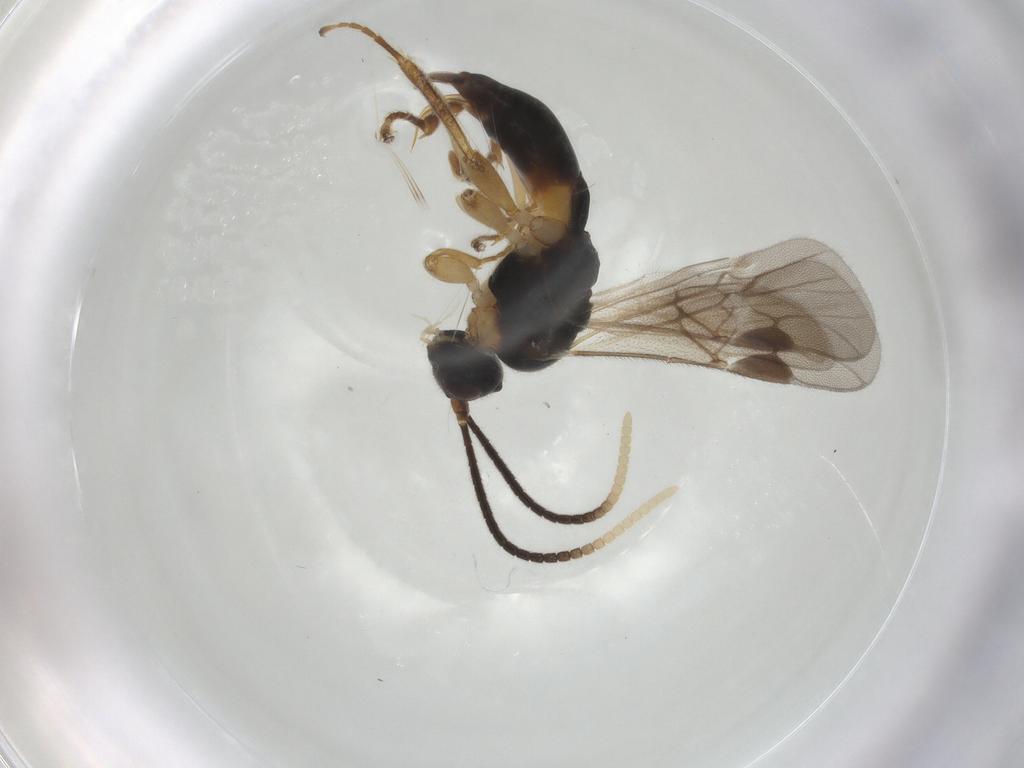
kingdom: Animalia
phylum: Arthropoda
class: Insecta
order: Hymenoptera
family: Braconidae
